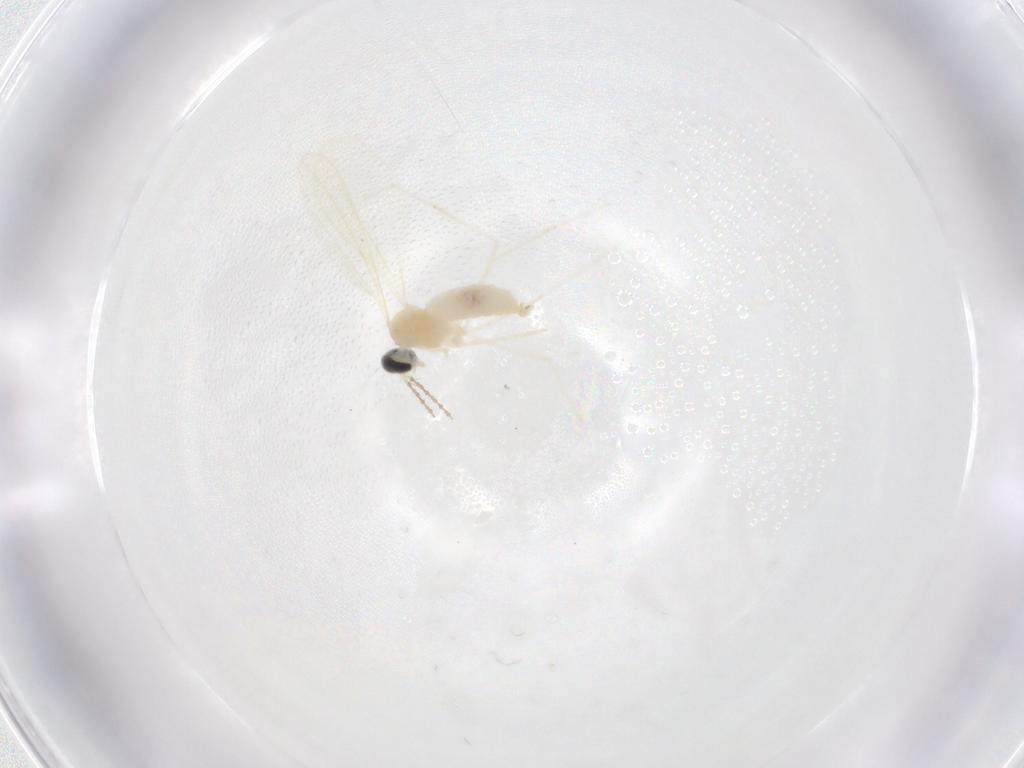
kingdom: Animalia
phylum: Arthropoda
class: Insecta
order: Diptera
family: Cecidomyiidae
